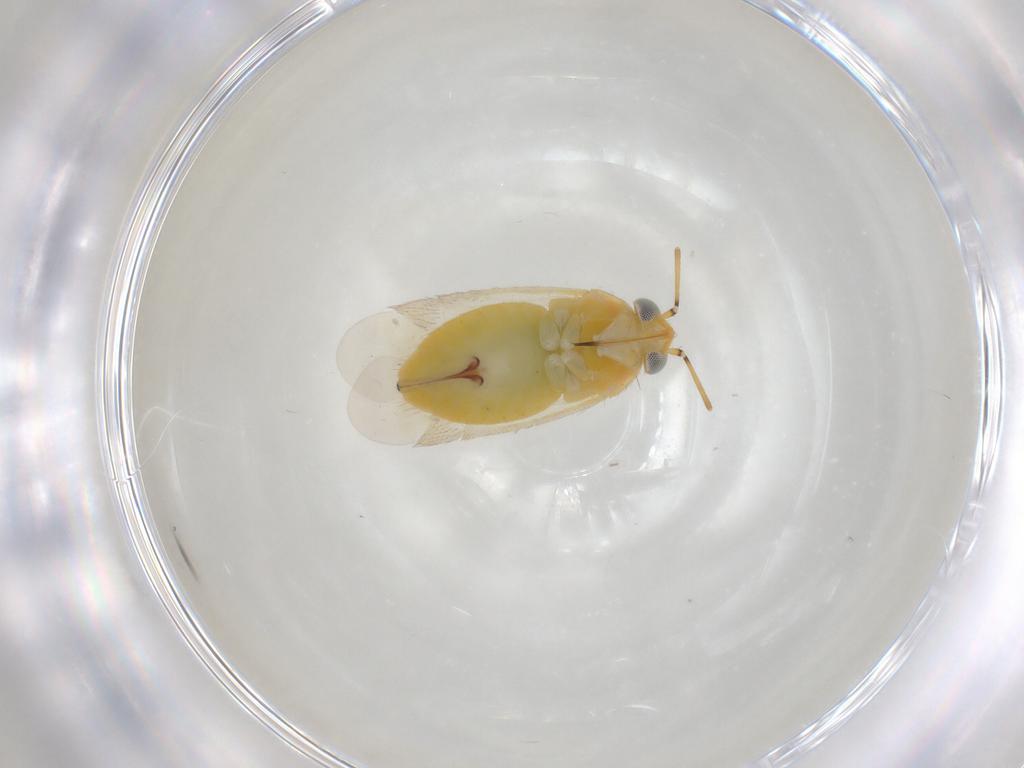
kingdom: Animalia
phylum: Arthropoda
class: Insecta
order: Hemiptera
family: Miridae
